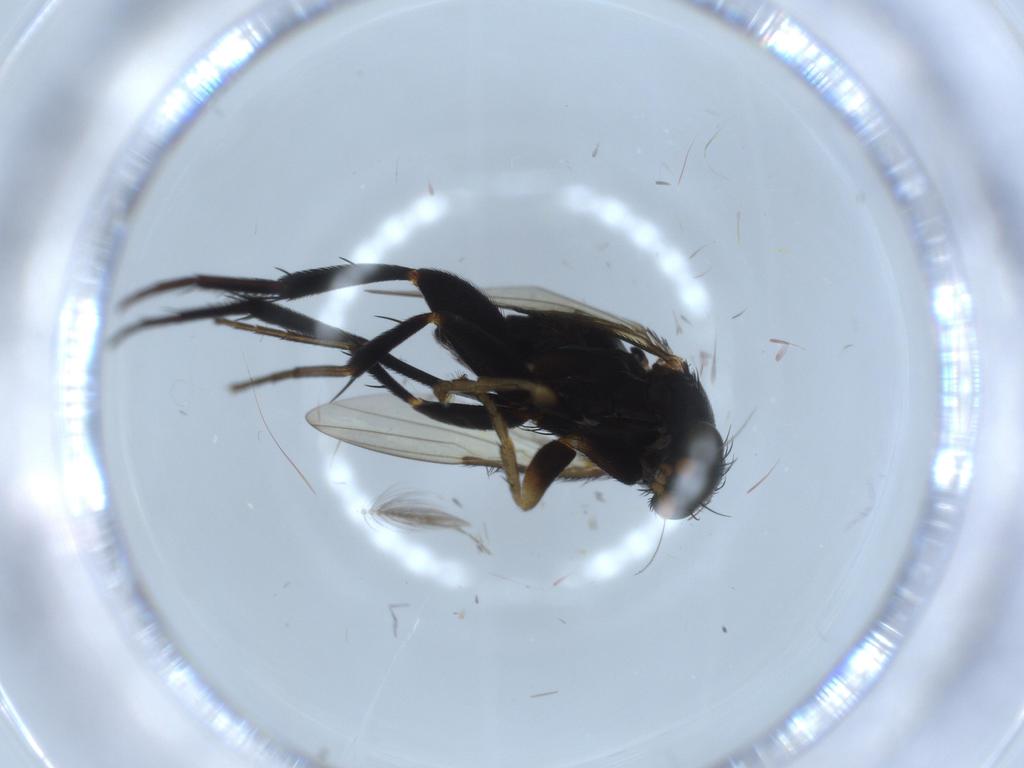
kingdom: Animalia
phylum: Arthropoda
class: Insecta
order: Diptera
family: Phoridae
